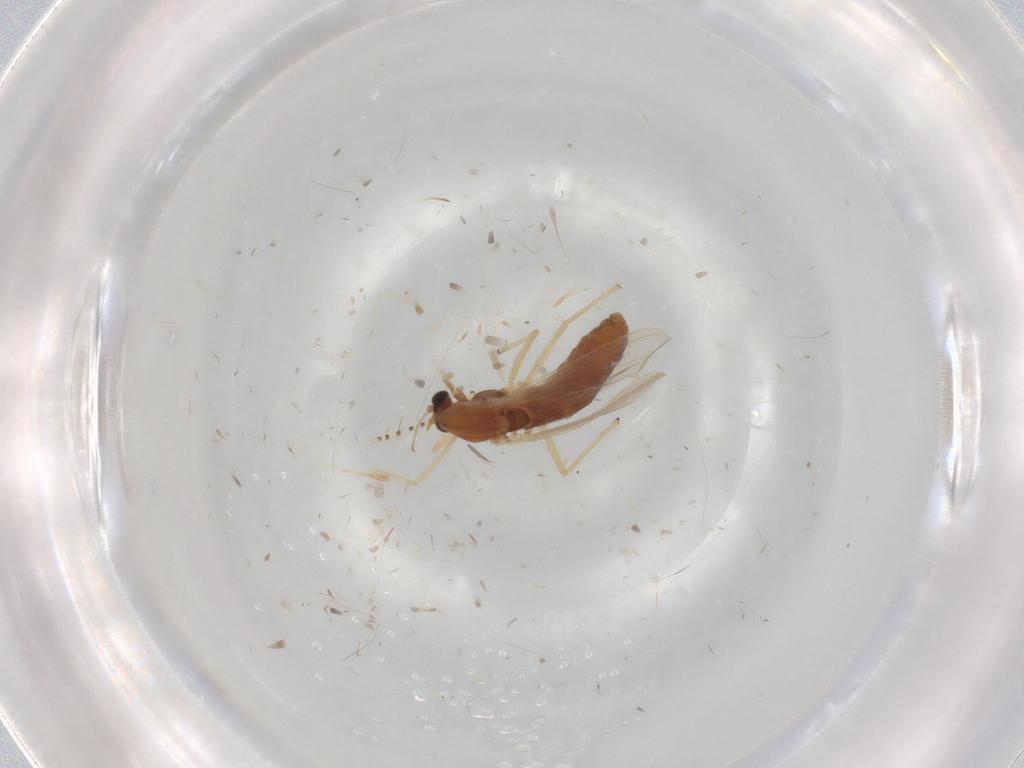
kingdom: Animalia
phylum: Arthropoda
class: Insecta
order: Diptera
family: Chironomidae
